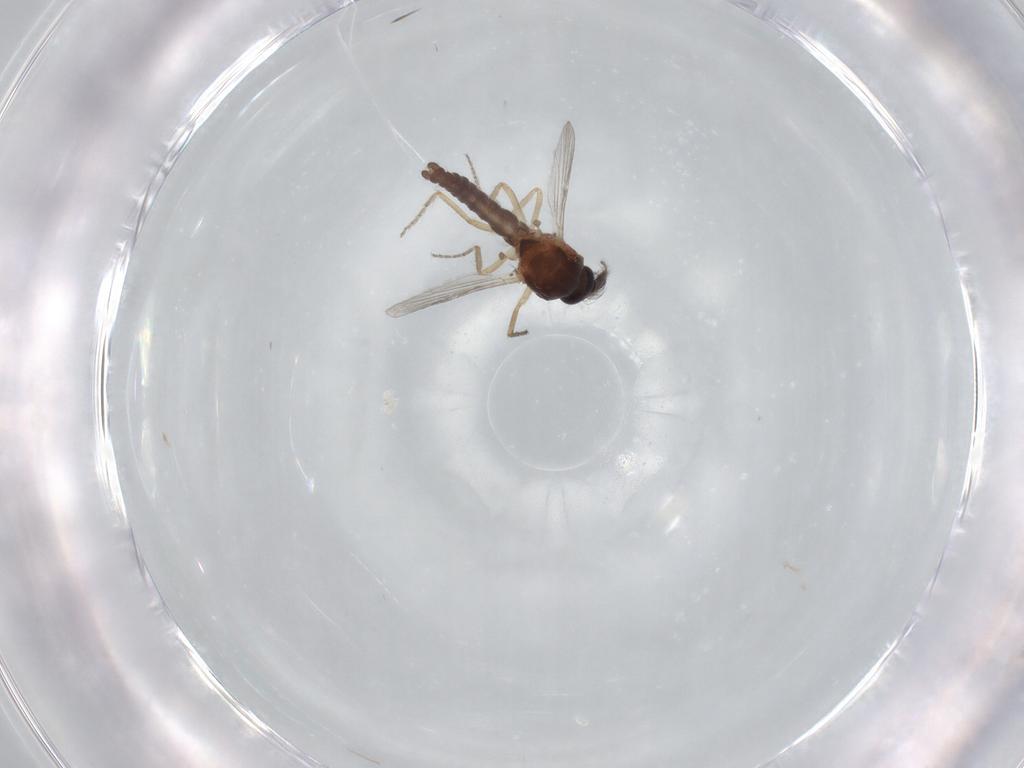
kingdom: Animalia
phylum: Arthropoda
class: Insecta
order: Diptera
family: Ceratopogonidae
